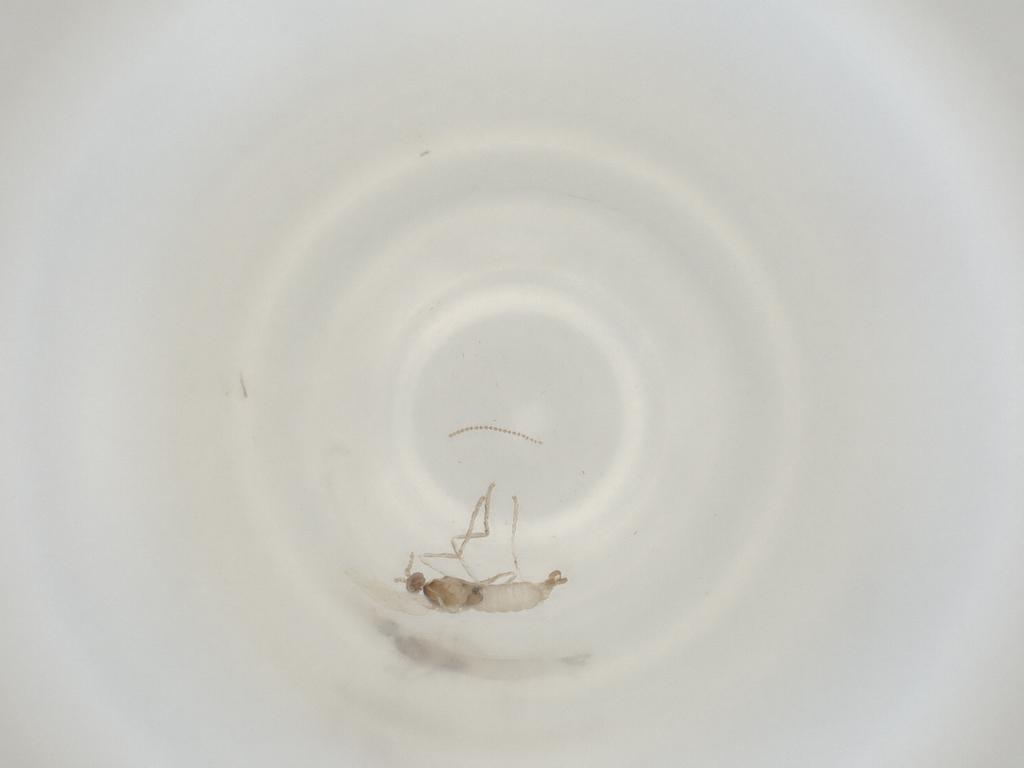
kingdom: Animalia
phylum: Arthropoda
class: Insecta
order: Diptera
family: Cecidomyiidae
